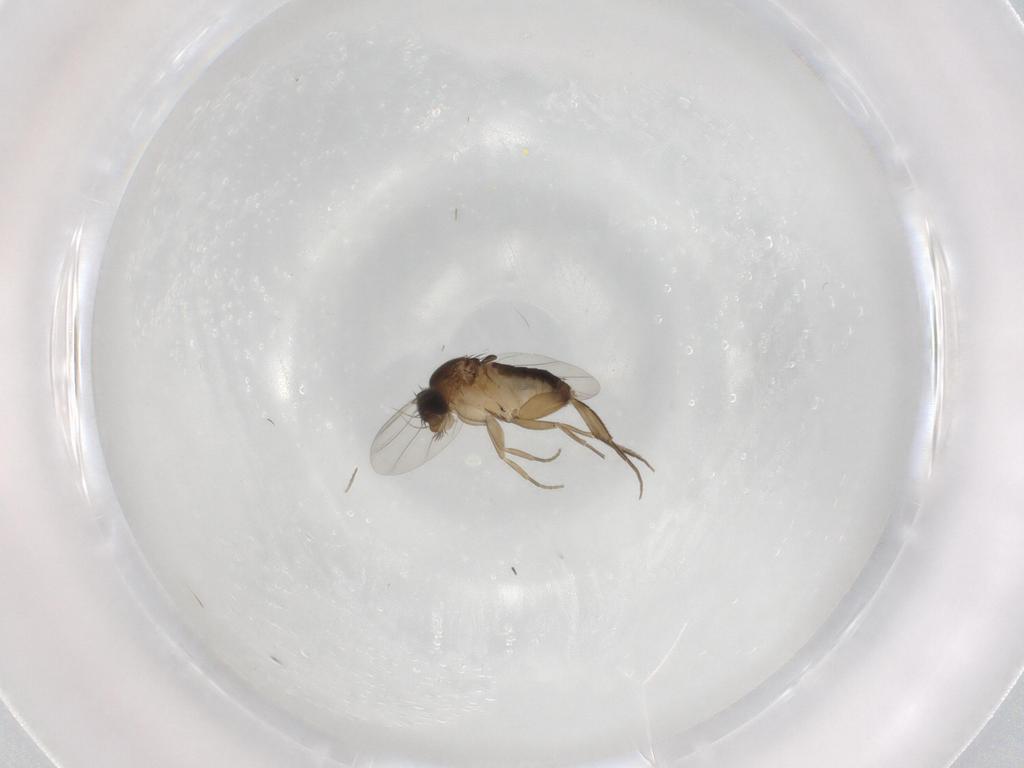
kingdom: Animalia
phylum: Arthropoda
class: Insecta
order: Diptera
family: Phoridae
